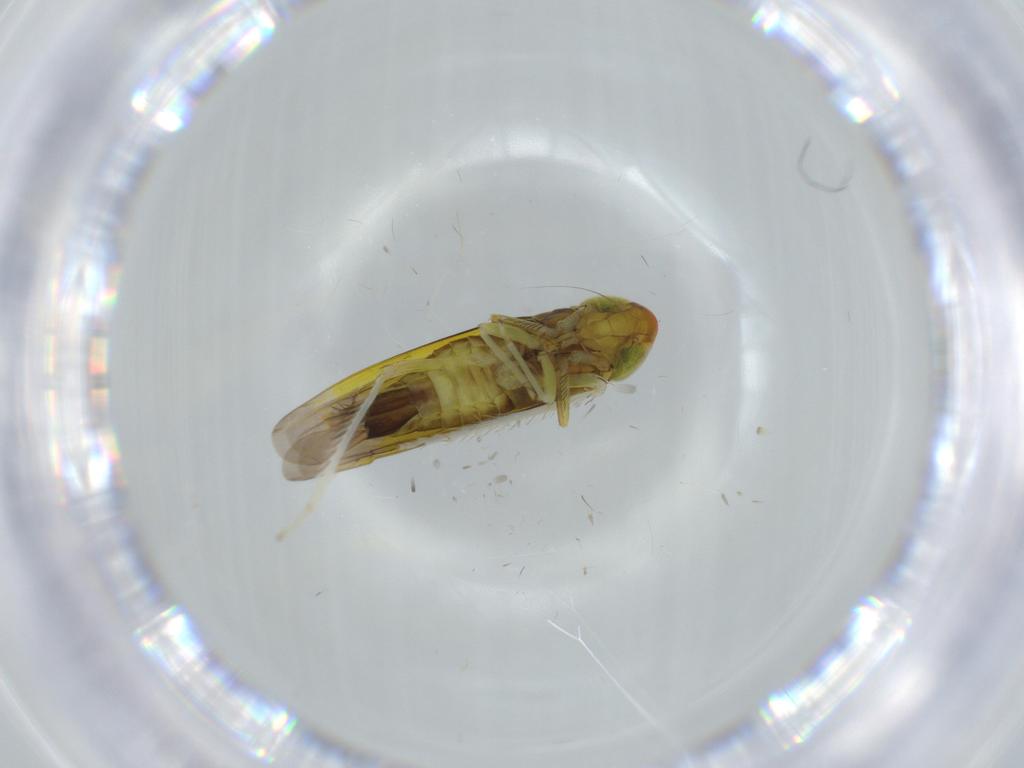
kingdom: Animalia
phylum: Arthropoda
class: Insecta
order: Hemiptera
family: Cicadellidae
